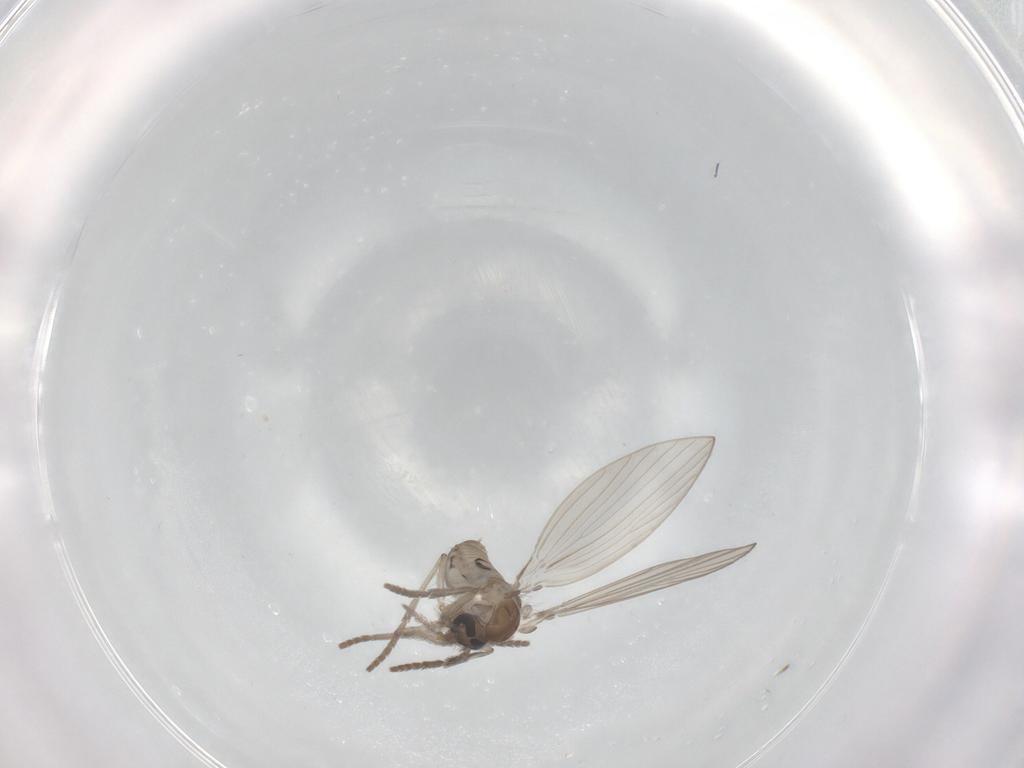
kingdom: Animalia
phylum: Arthropoda
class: Insecta
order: Diptera
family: Psychodidae
